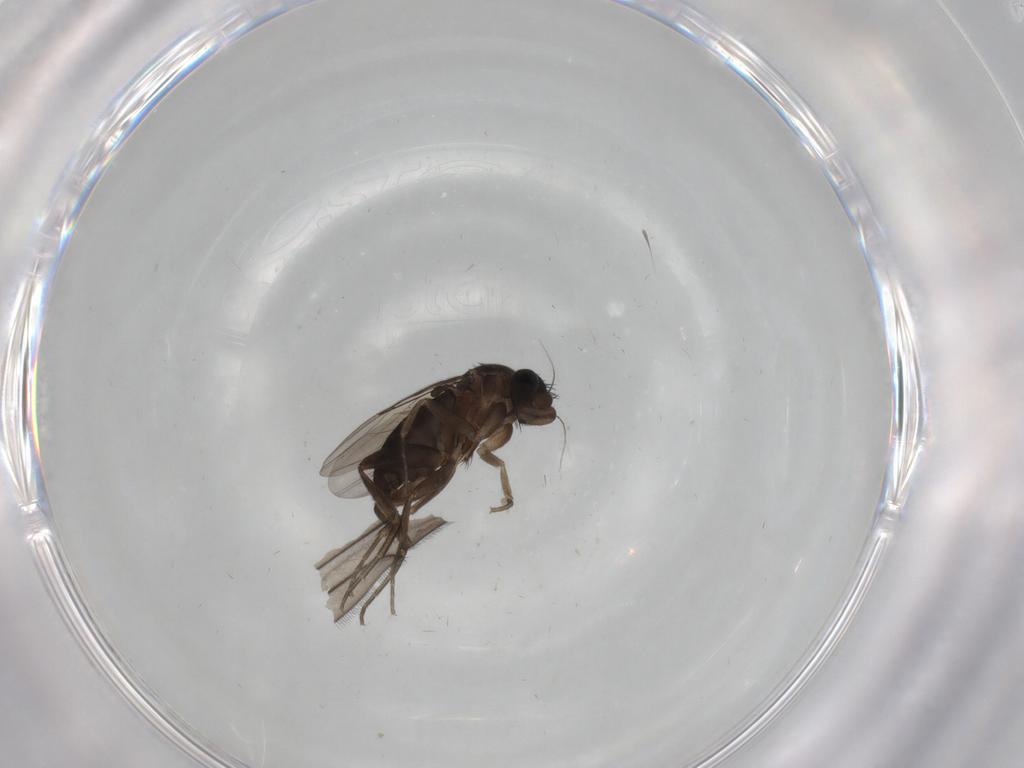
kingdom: Animalia
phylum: Arthropoda
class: Insecta
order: Diptera
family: Phoridae
